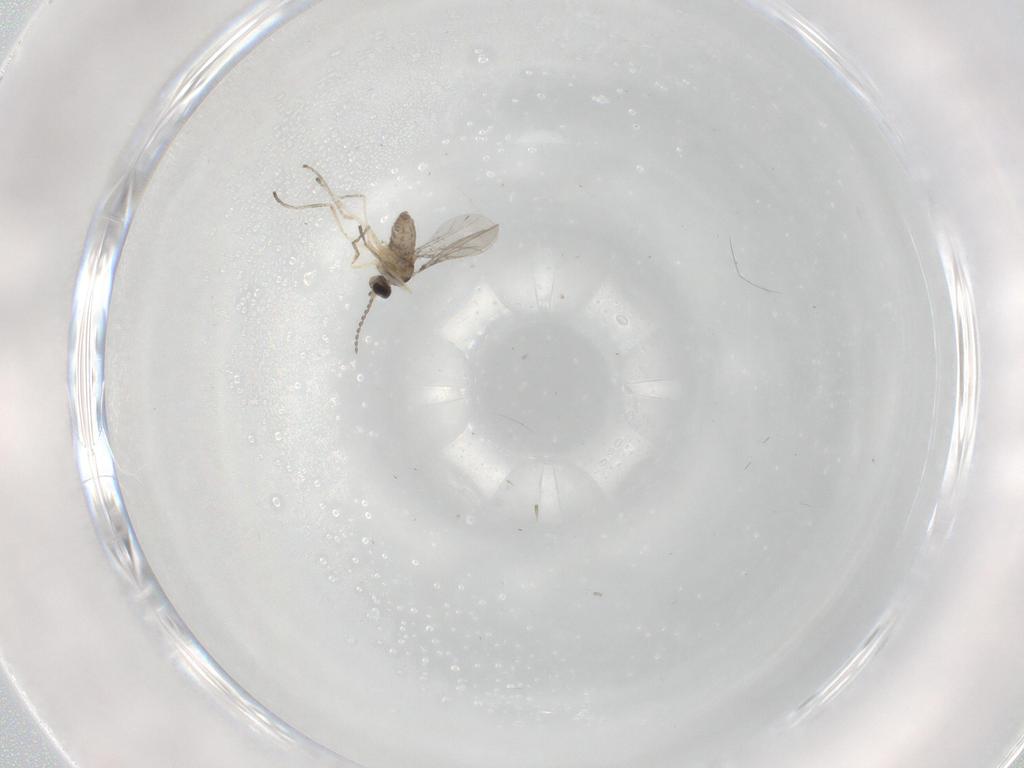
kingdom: Animalia
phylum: Arthropoda
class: Insecta
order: Diptera
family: Cecidomyiidae
